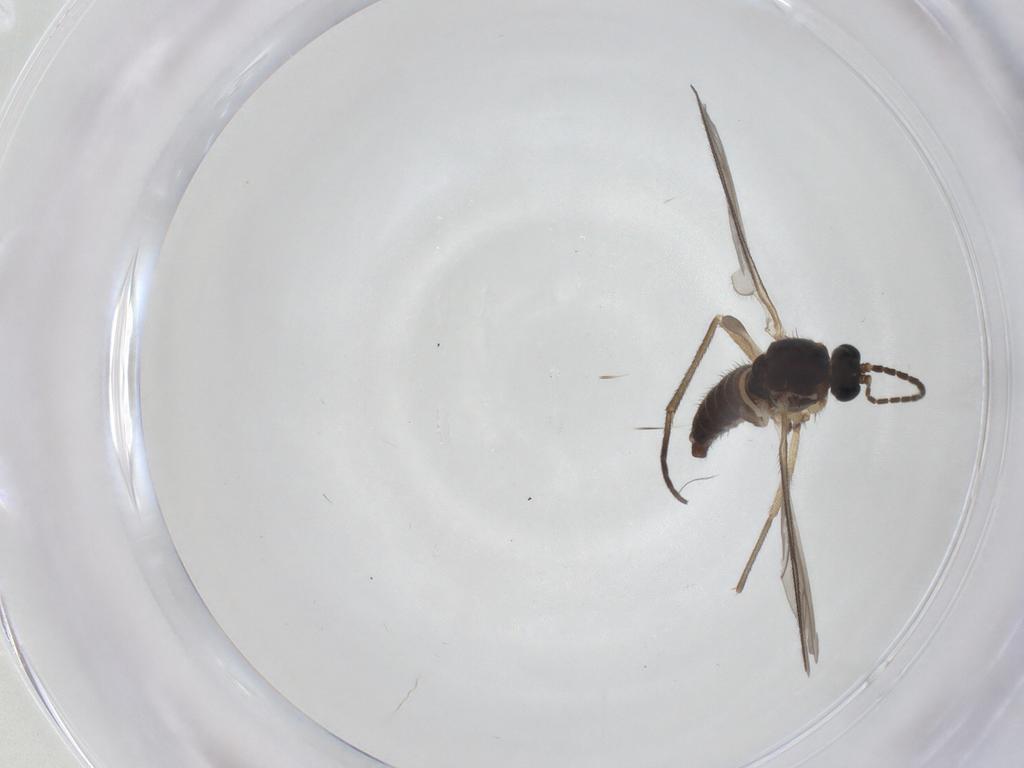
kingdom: Animalia
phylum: Arthropoda
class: Insecta
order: Diptera
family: Sciaridae
